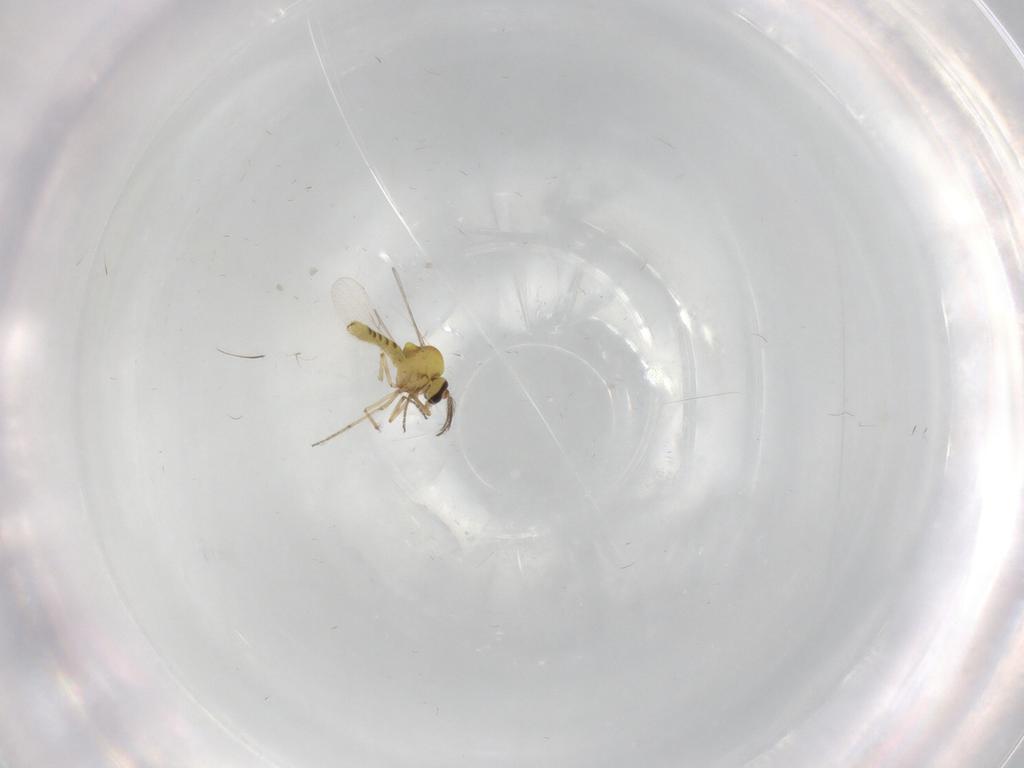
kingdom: Animalia
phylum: Arthropoda
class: Insecta
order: Diptera
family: Ceratopogonidae
